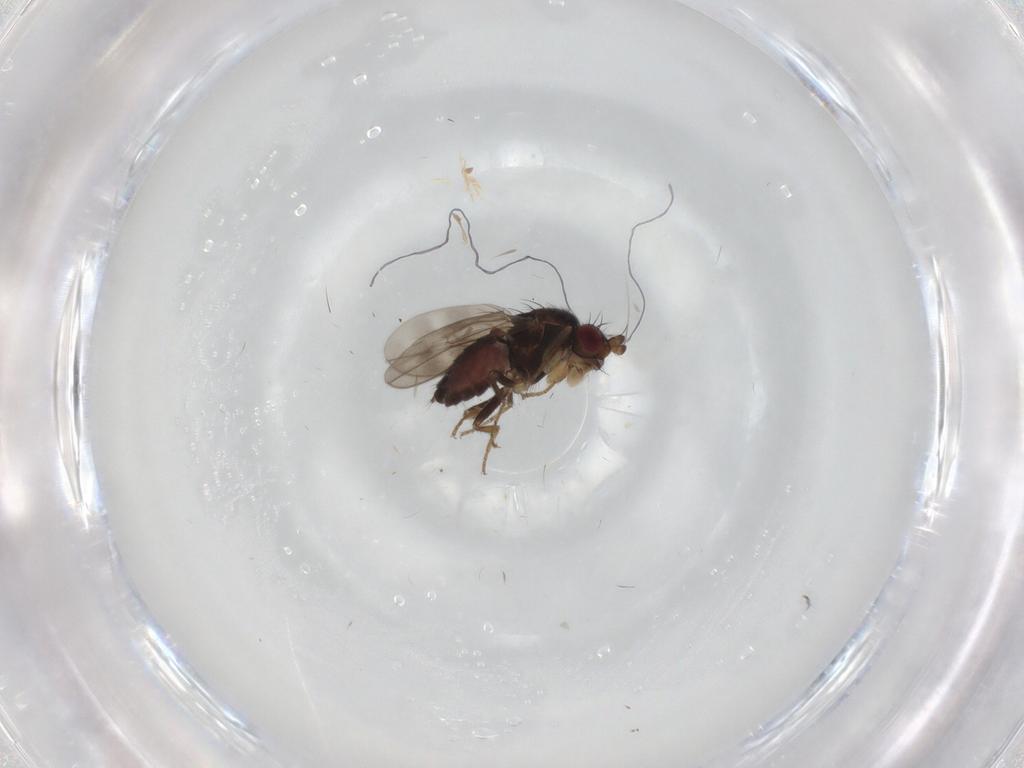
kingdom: Animalia
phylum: Arthropoda
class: Insecta
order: Diptera
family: Sphaeroceridae
